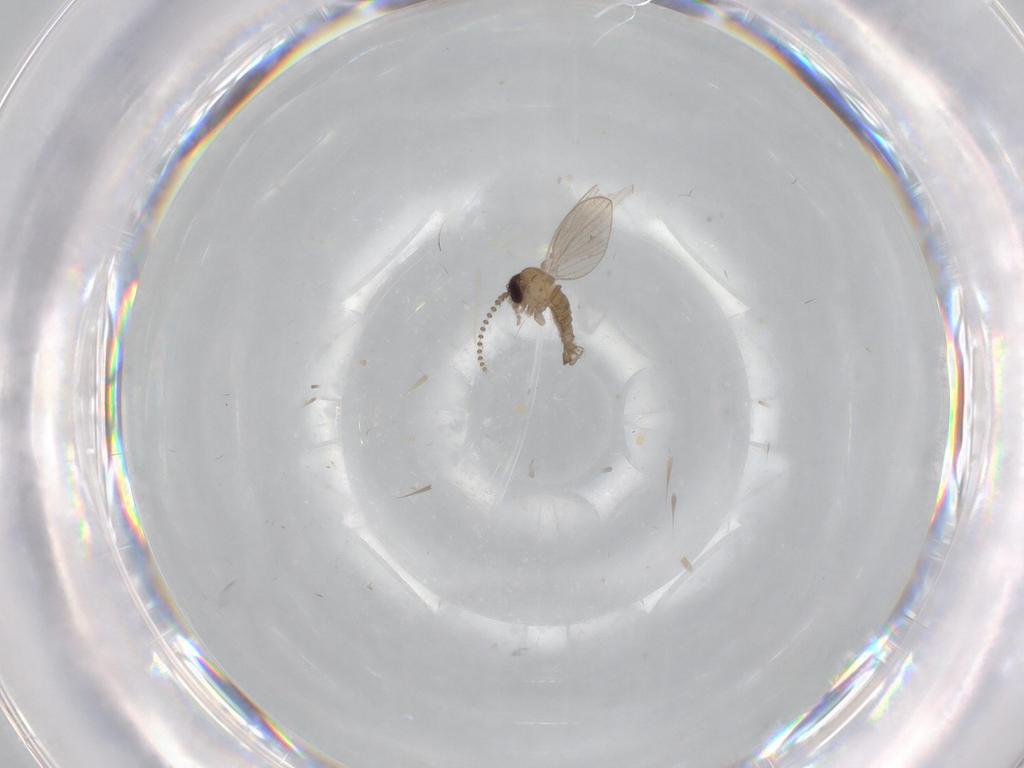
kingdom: Animalia
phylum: Arthropoda
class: Insecta
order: Diptera
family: Psychodidae
